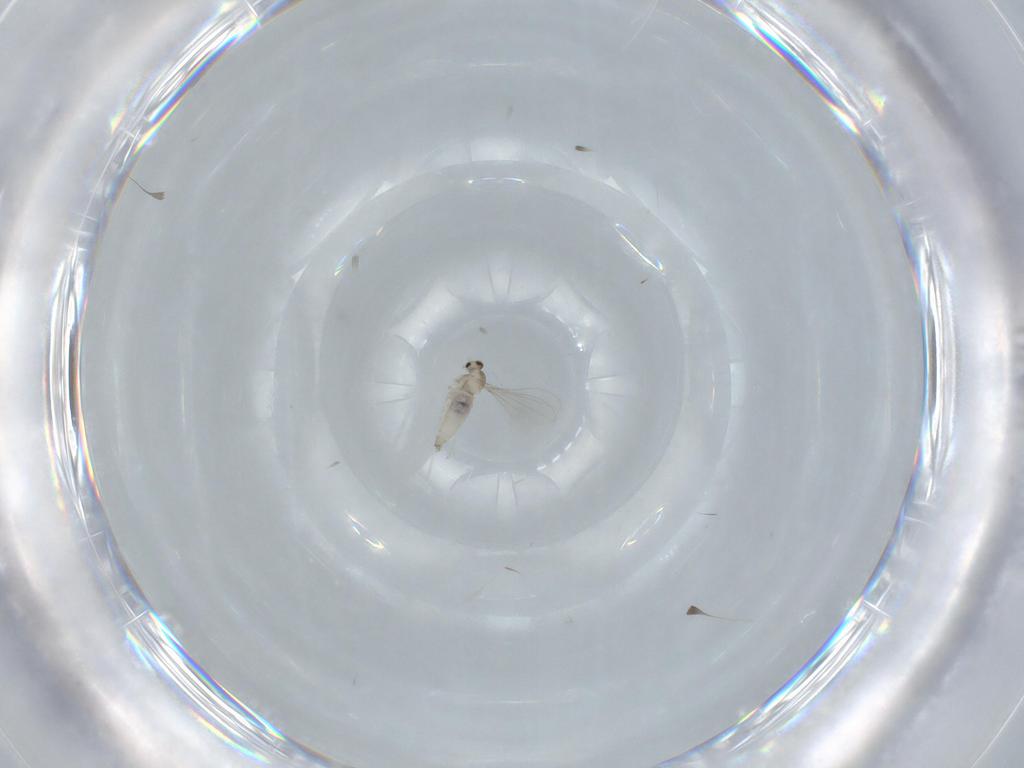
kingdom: Animalia
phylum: Arthropoda
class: Insecta
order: Diptera
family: Cecidomyiidae
